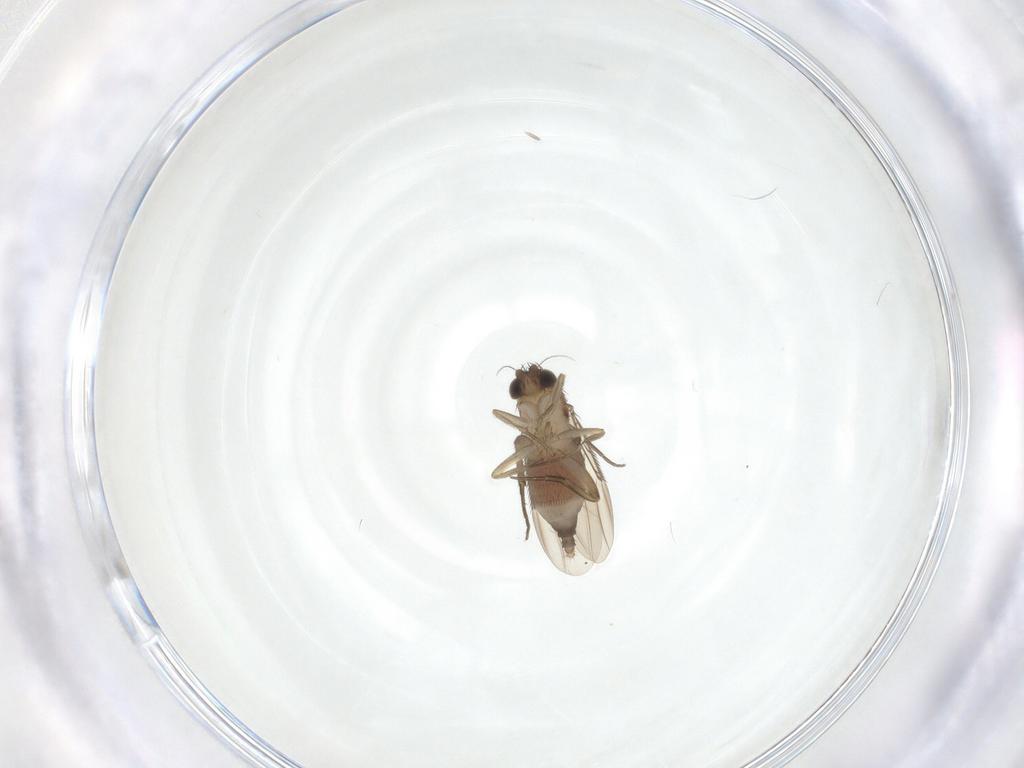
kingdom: Animalia
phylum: Arthropoda
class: Insecta
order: Diptera
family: Phoridae
